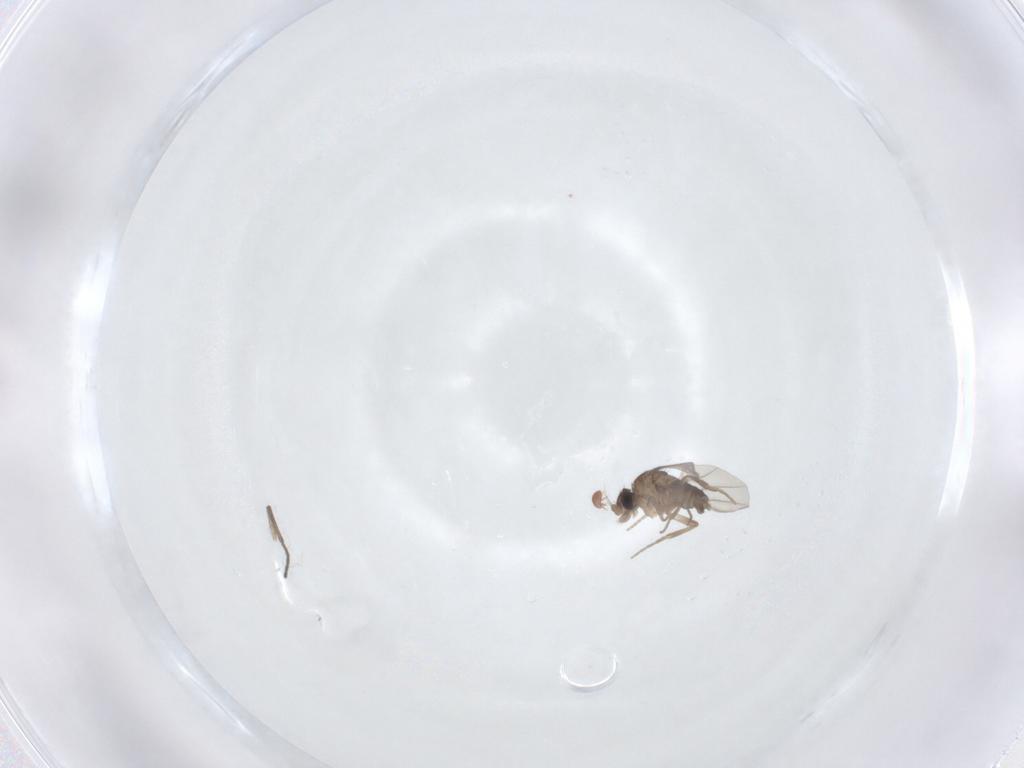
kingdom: Animalia
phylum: Arthropoda
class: Insecta
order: Diptera
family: Phoridae
